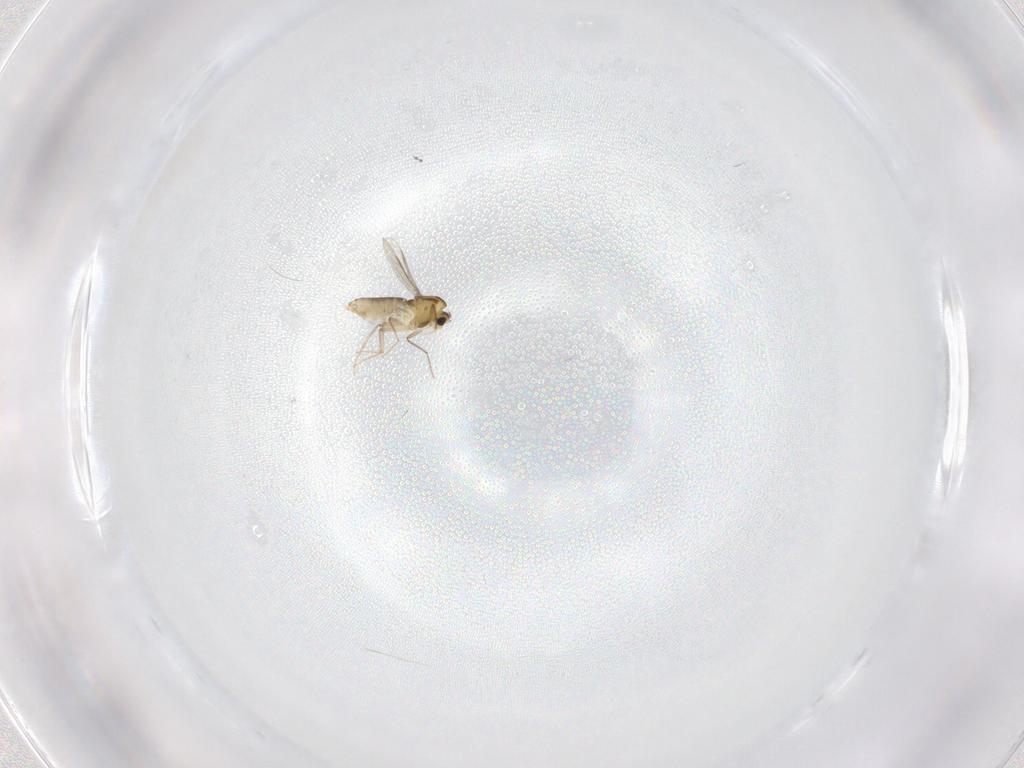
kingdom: Animalia
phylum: Arthropoda
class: Insecta
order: Diptera
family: Chironomidae
